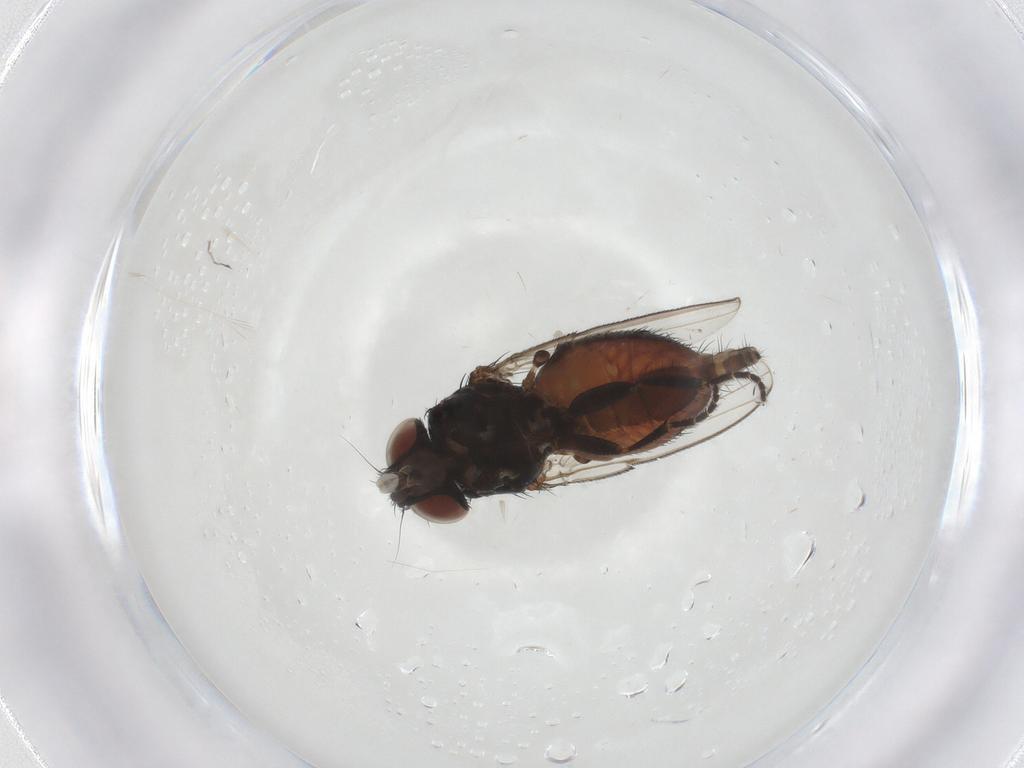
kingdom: Animalia
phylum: Arthropoda
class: Insecta
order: Diptera
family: Milichiidae
